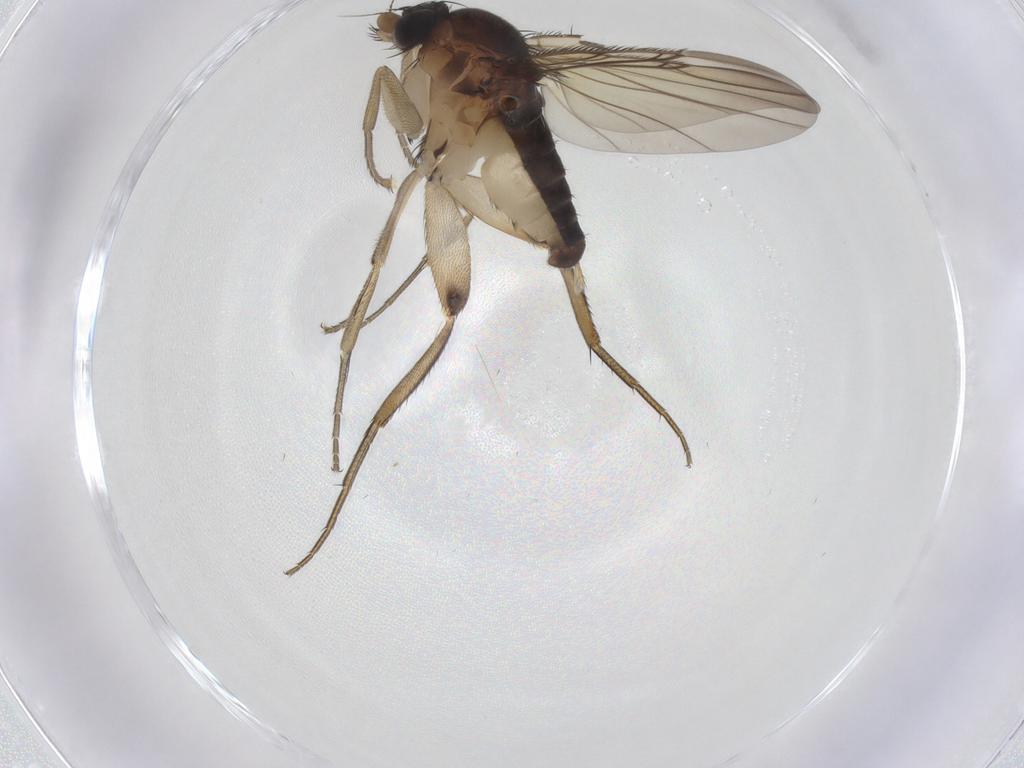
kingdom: Animalia
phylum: Arthropoda
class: Insecta
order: Diptera
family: Phoridae
